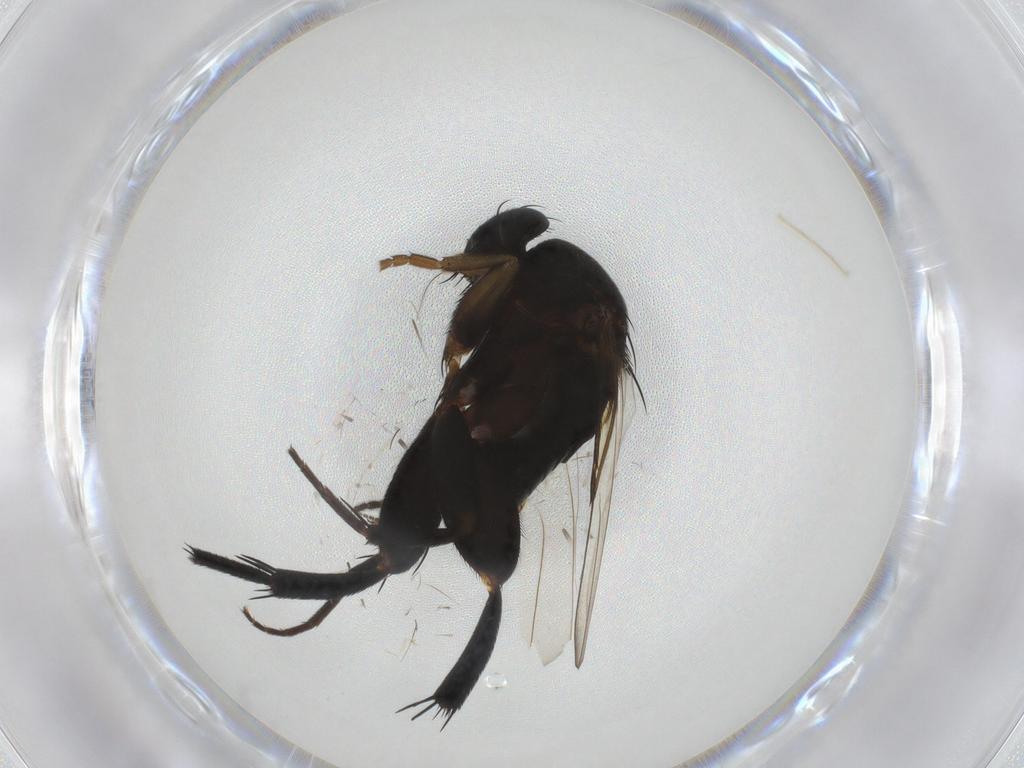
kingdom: Animalia
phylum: Arthropoda
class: Insecta
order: Diptera
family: Phoridae
